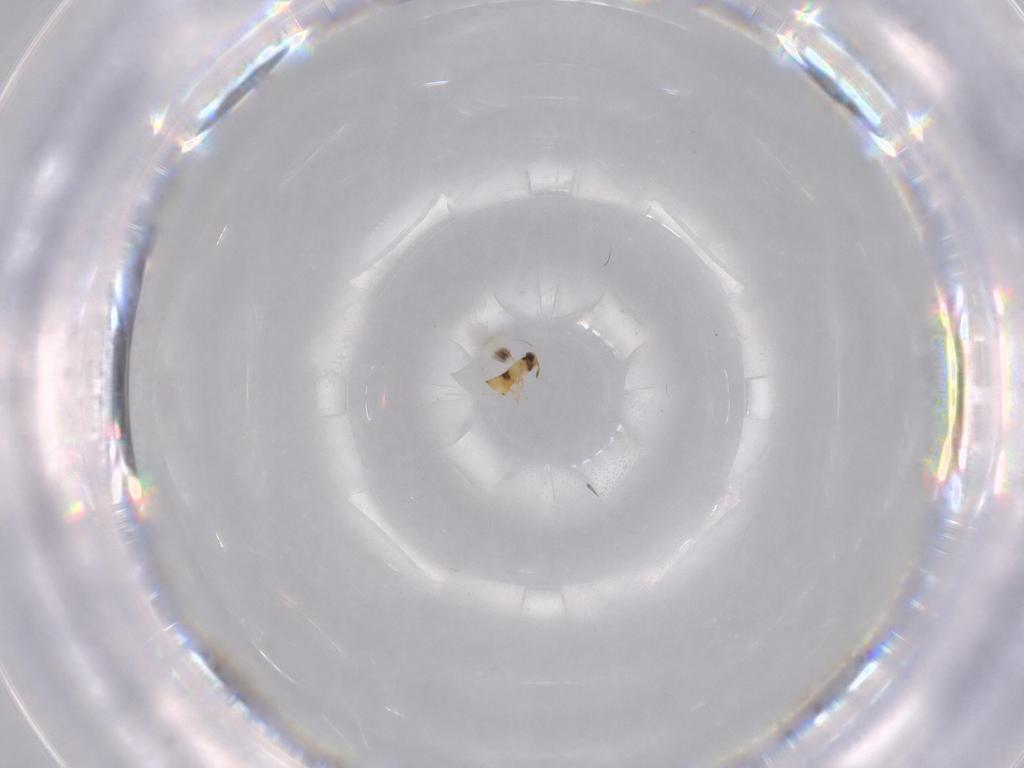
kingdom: Animalia
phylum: Arthropoda
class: Insecta
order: Hymenoptera
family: Signiphoridae
